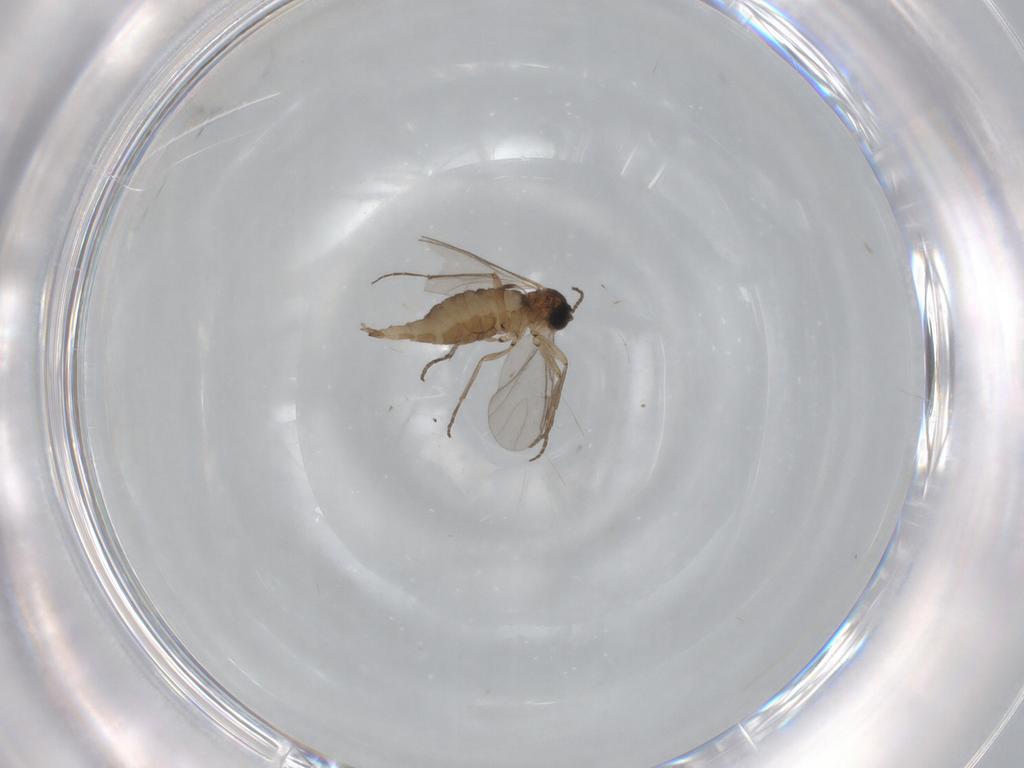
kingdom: Animalia
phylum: Arthropoda
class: Insecta
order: Diptera
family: Sciaridae
